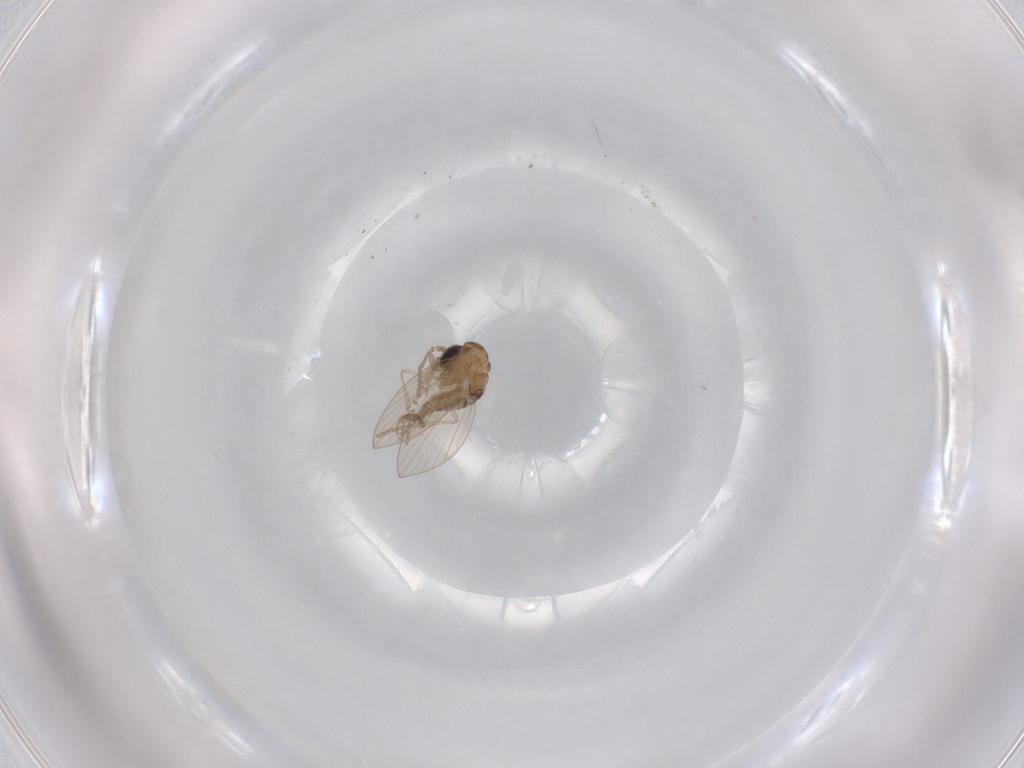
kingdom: Animalia
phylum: Arthropoda
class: Insecta
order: Diptera
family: Psychodidae
